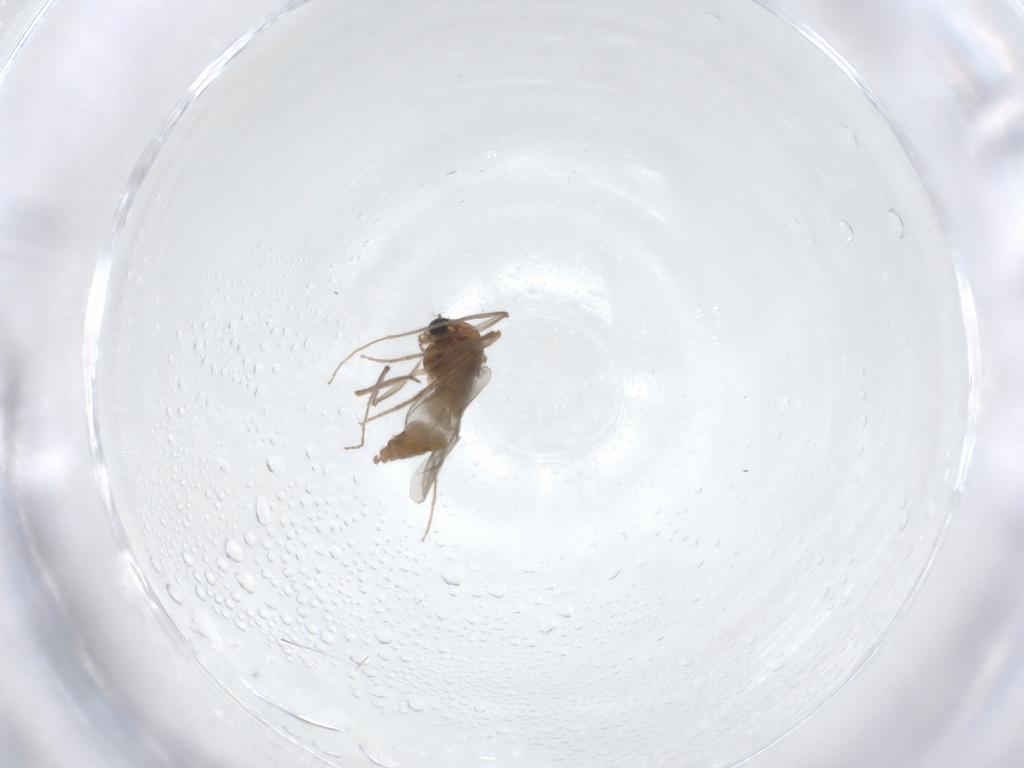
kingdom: Animalia
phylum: Arthropoda
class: Insecta
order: Diptera
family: Chironomidae
